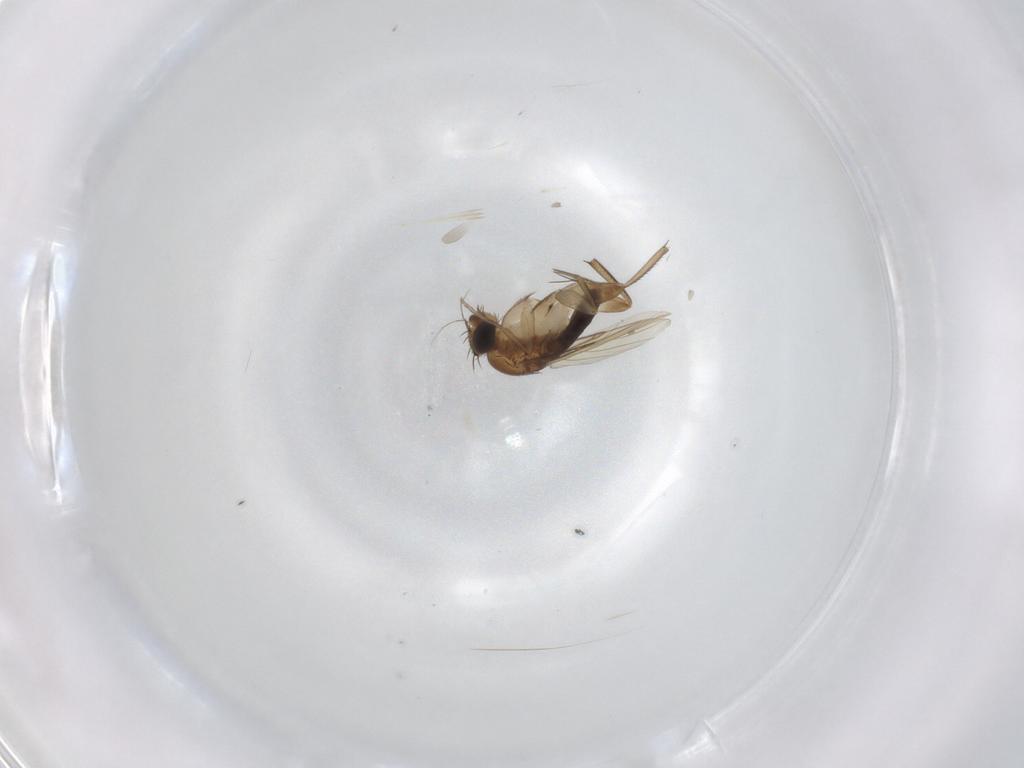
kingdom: Animalia
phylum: Arthropoda
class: Insecta
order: Diptera
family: Phoridae
